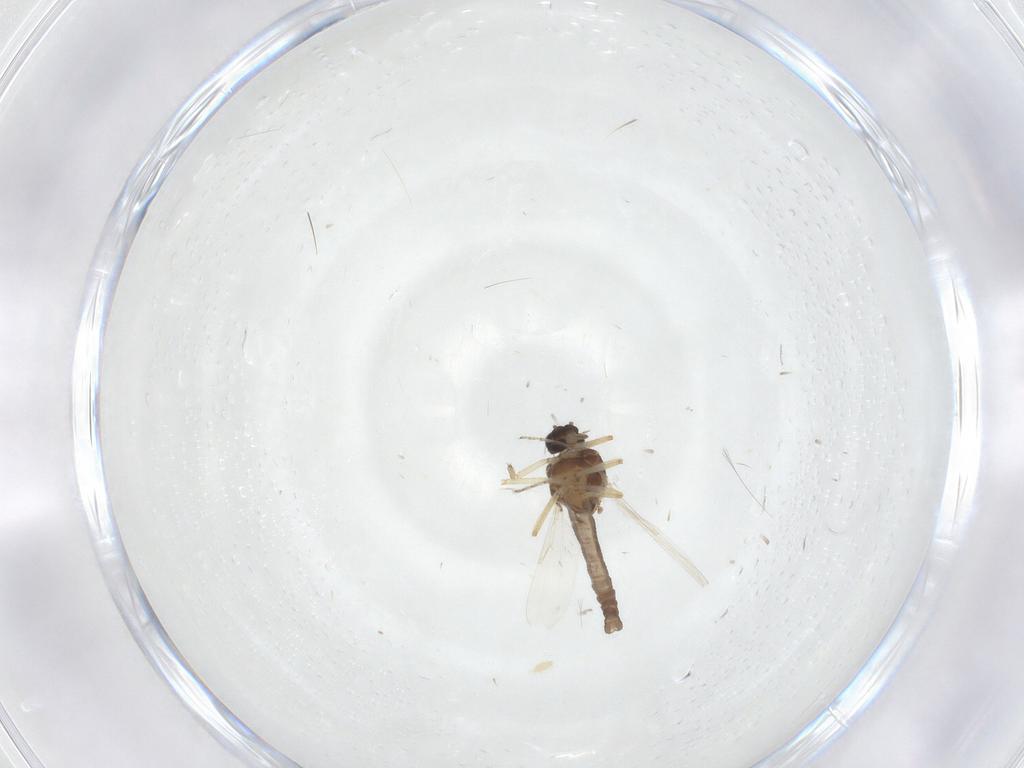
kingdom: Animalia
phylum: Arthropoda
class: Insecta
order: Diptera
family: Ceratopogonidae
